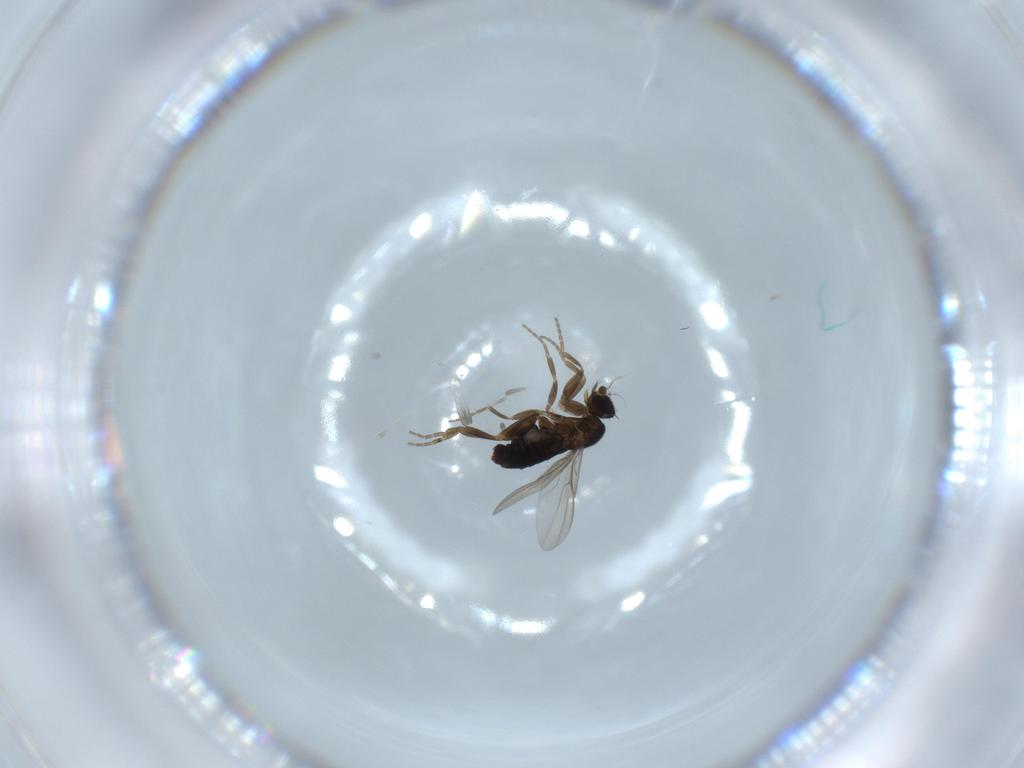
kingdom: Animalia
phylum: Arthropoda
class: Insecta
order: Diptera
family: Phoridae
